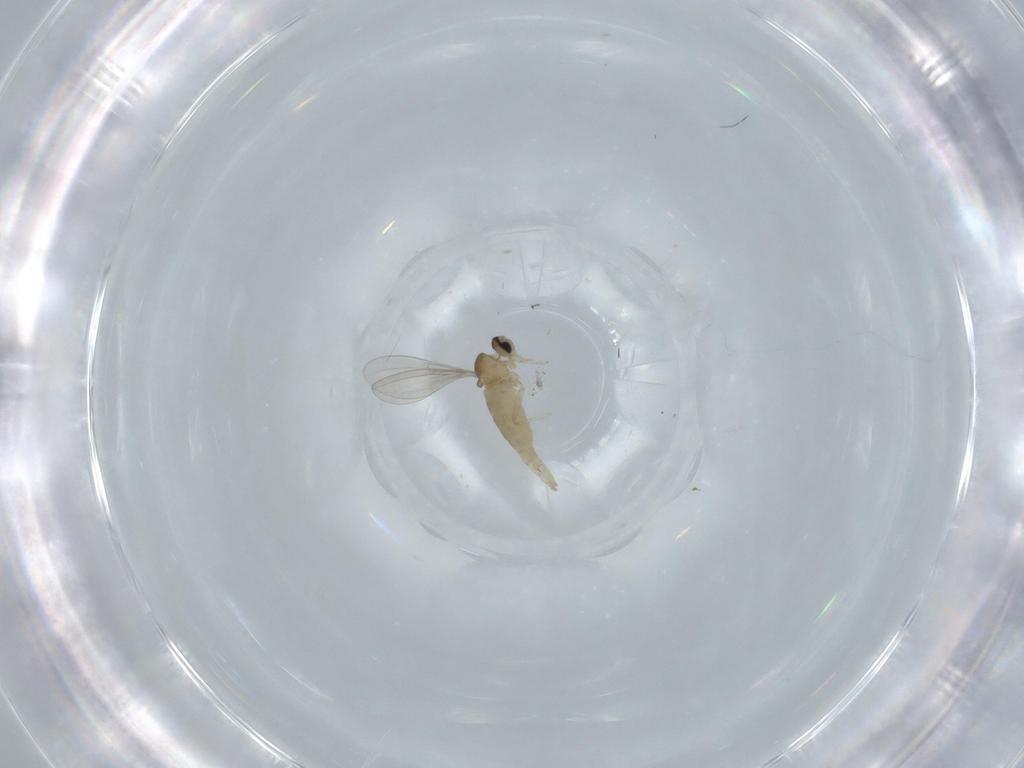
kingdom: Animalia
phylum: Arthropoda
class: Insecta
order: Diptera
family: Cecidomyiidae
